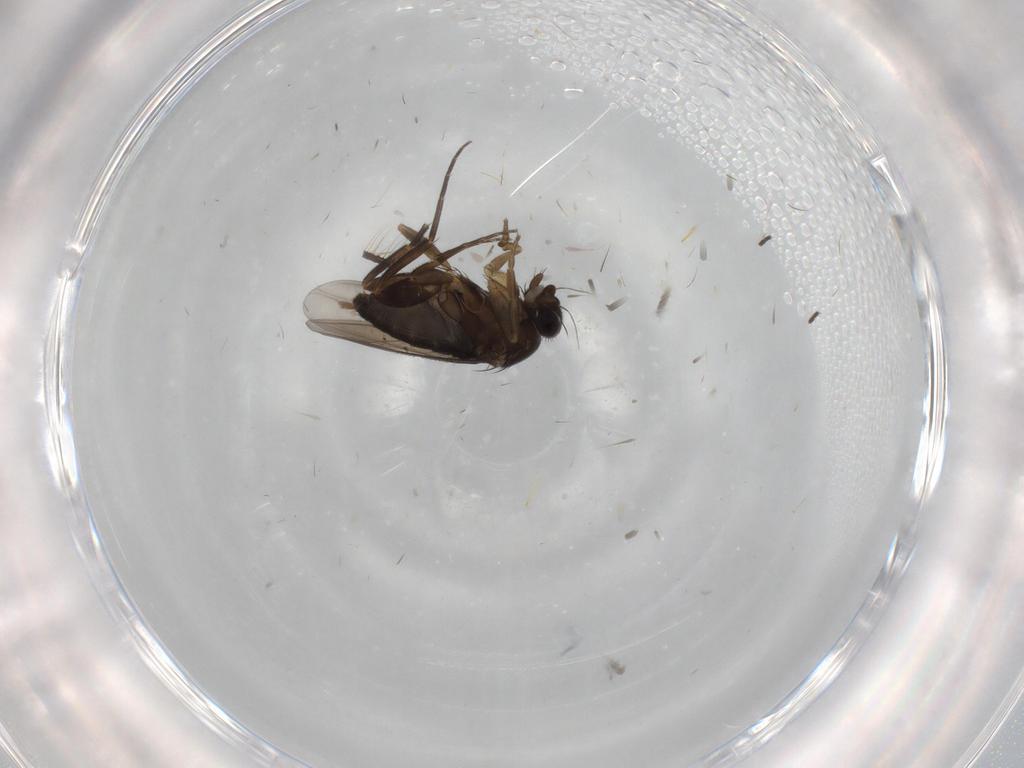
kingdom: Animalia
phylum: Arthropoda
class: Insecta
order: Diptera
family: Phoridae
